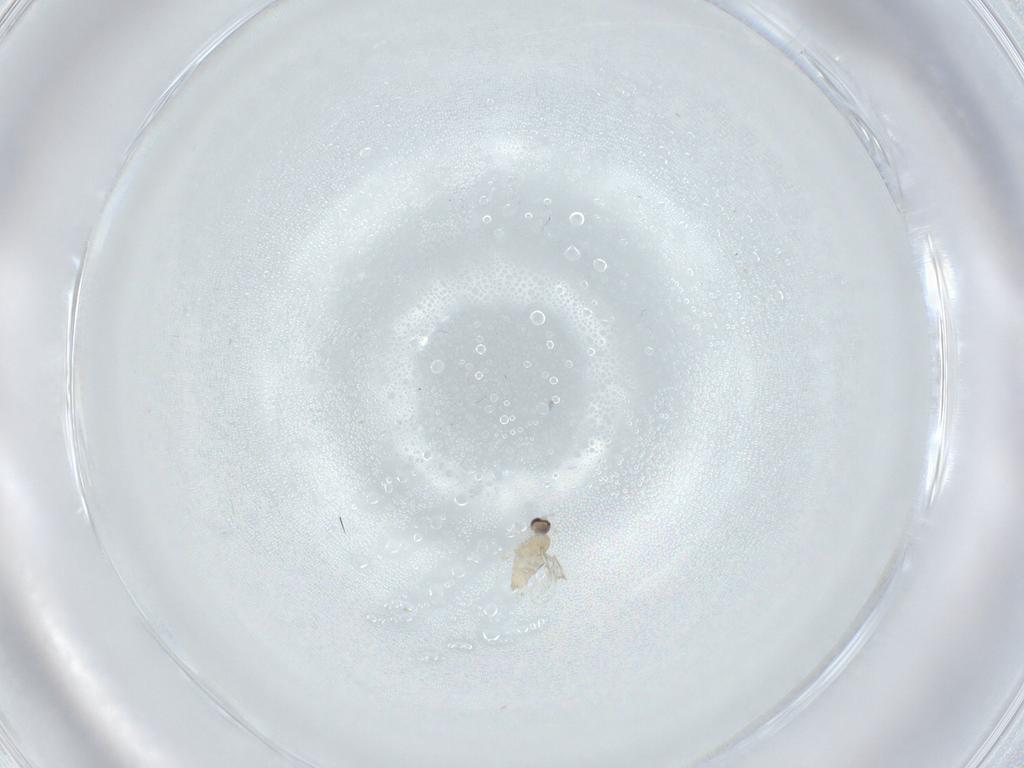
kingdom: Animalia
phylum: Arthropoda
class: Insecta
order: Diptera
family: Cecidomyiidae
